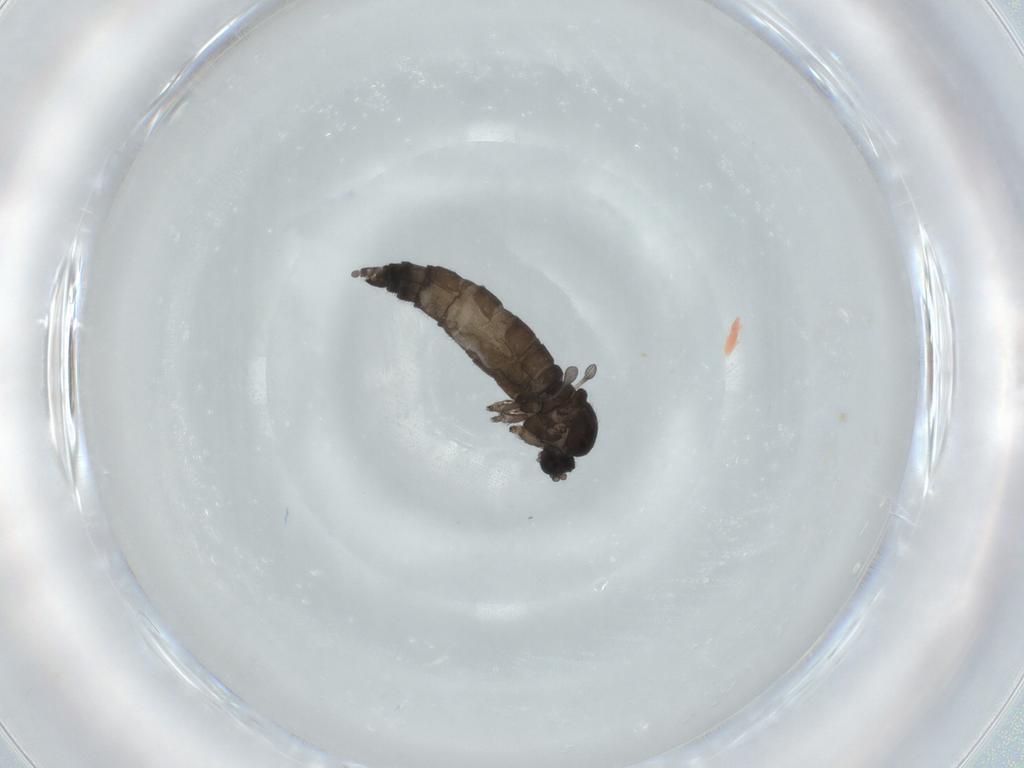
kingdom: Animalia
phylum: Arthropoda
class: Insecta
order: Diptera
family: Sciaridae
